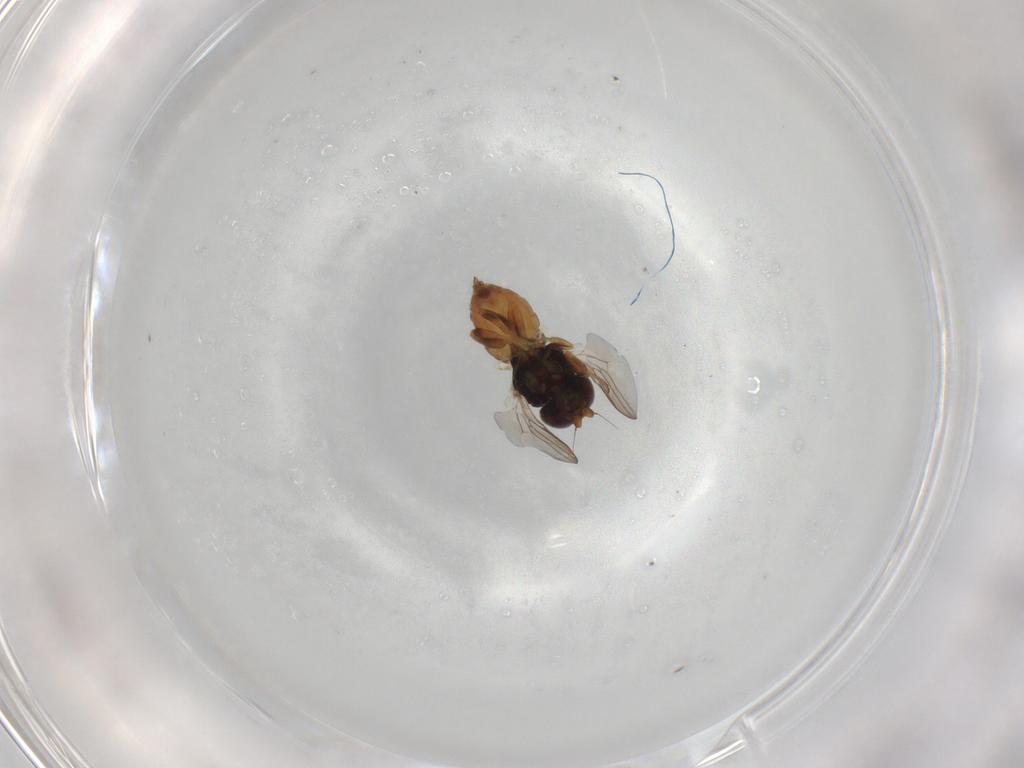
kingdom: Animalia
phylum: Arthropoda
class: Insecta
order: Diptera
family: Chloropidae
